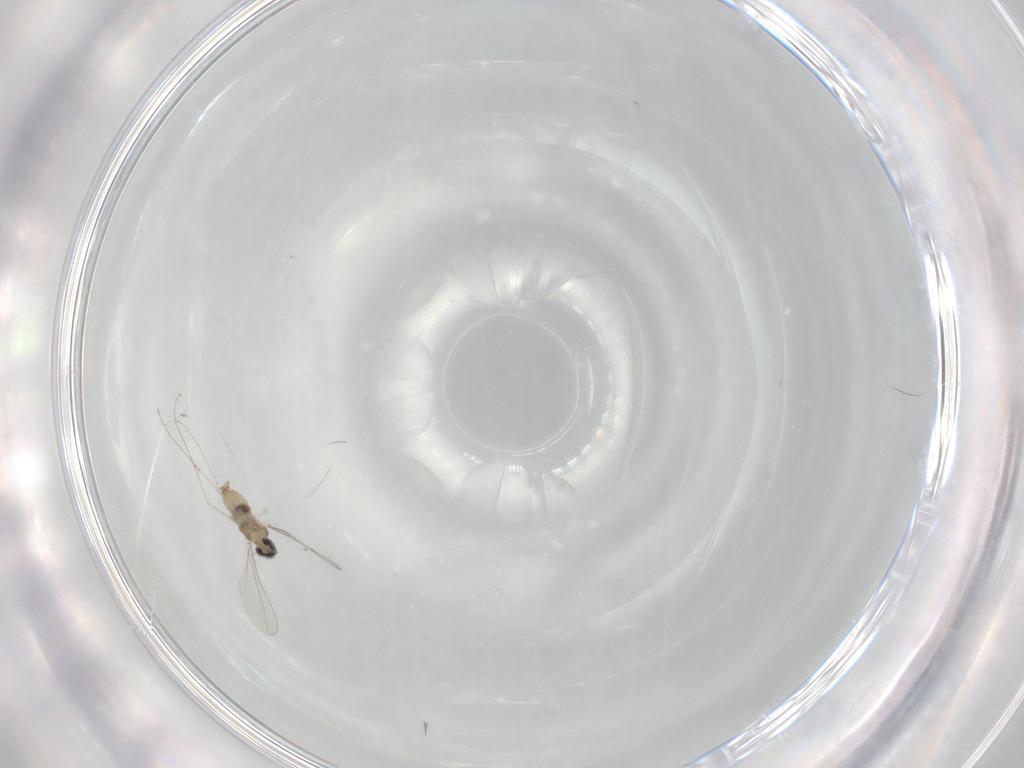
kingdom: Animalia
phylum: Arthropoda
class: Insecta
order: Diptera
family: Cecidomyiidae
